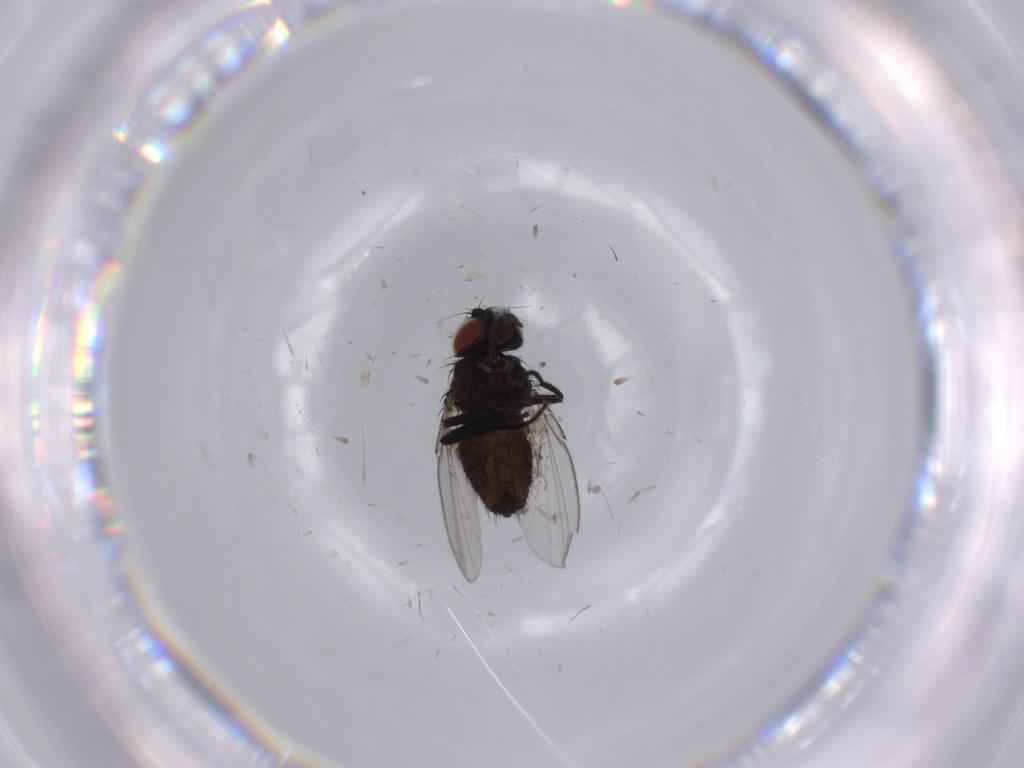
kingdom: Animalia
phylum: Arthropoda
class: Insecta
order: Diptera
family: Milichiidae
